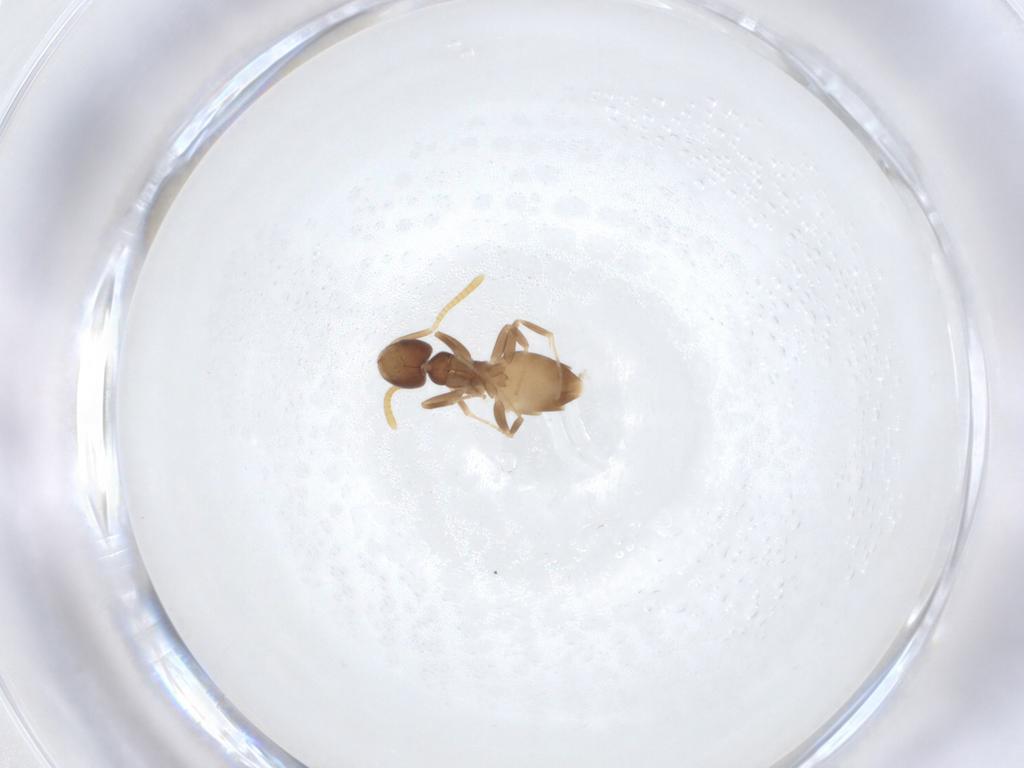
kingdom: Animalia
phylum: Arthropoda
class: Insecta
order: Hymenoptera
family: Formicidae
